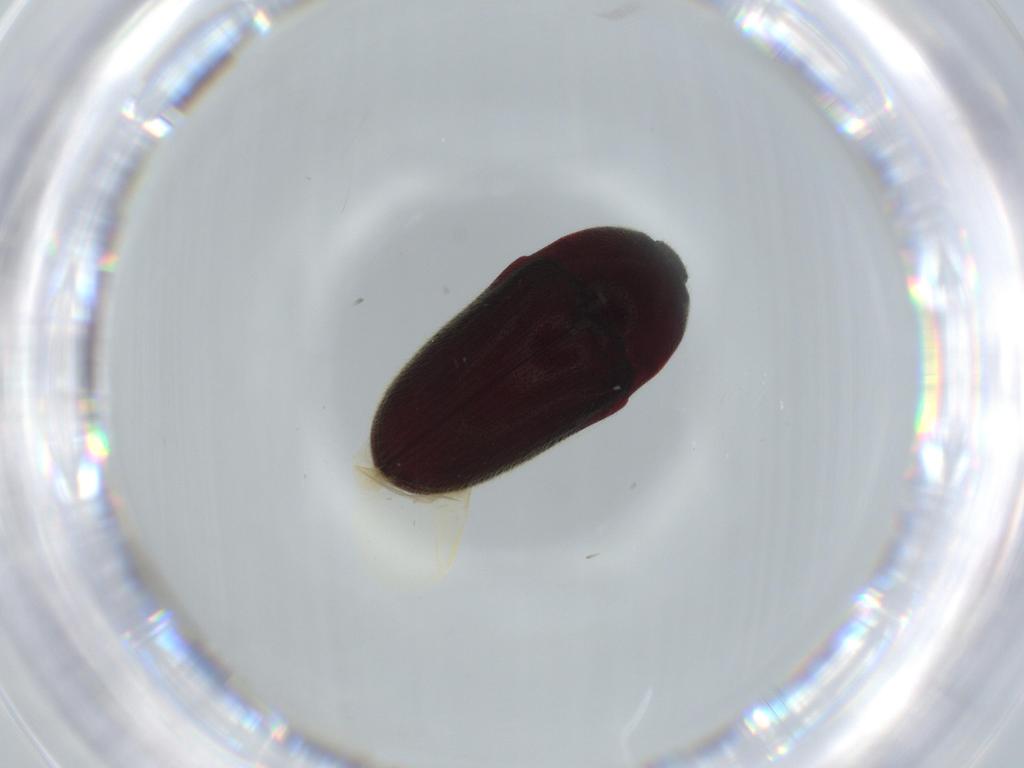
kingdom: Animalia
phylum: Arthropoda
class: Insecta
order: Coleoptera
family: Throscidae
